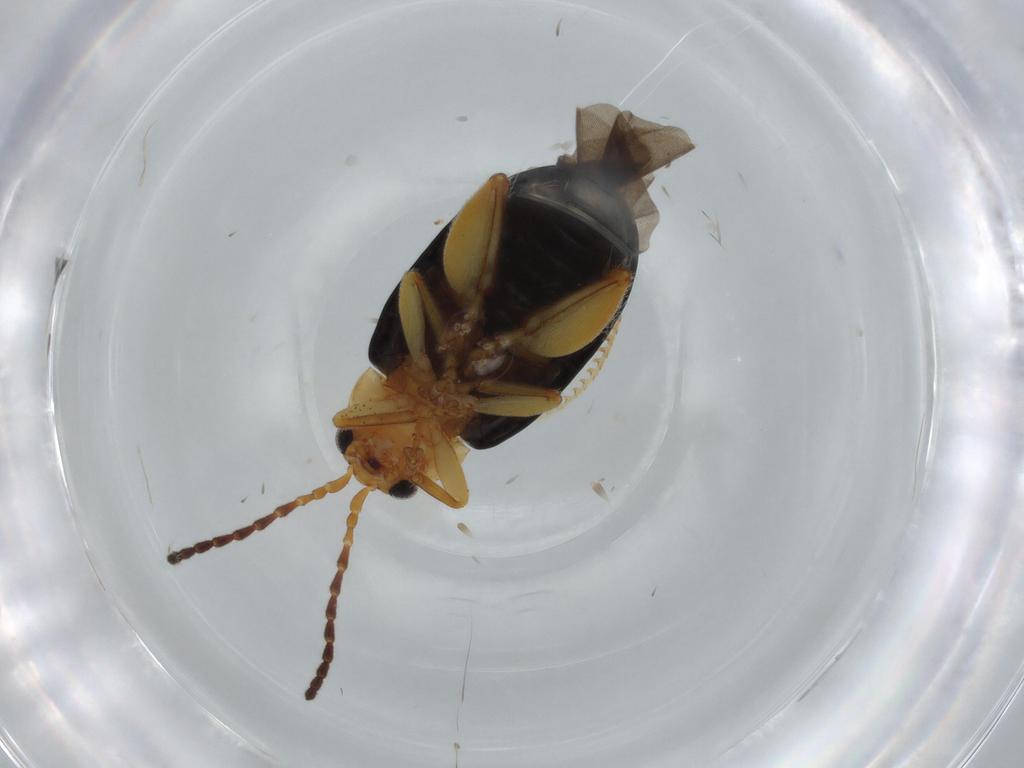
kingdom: Animalia
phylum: Arthropoda
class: Insecta
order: Coleoptera
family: Chrysomelidae
